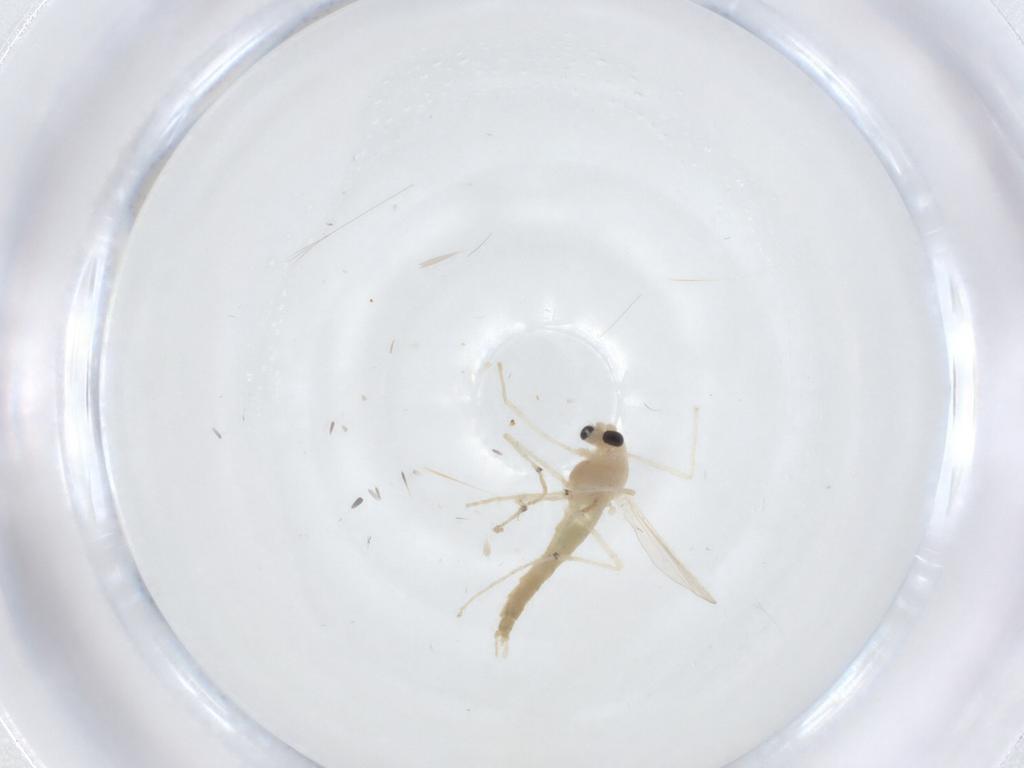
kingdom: Animalia
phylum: Arthropoda
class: Insecta
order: Diptera
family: Chironomidae
